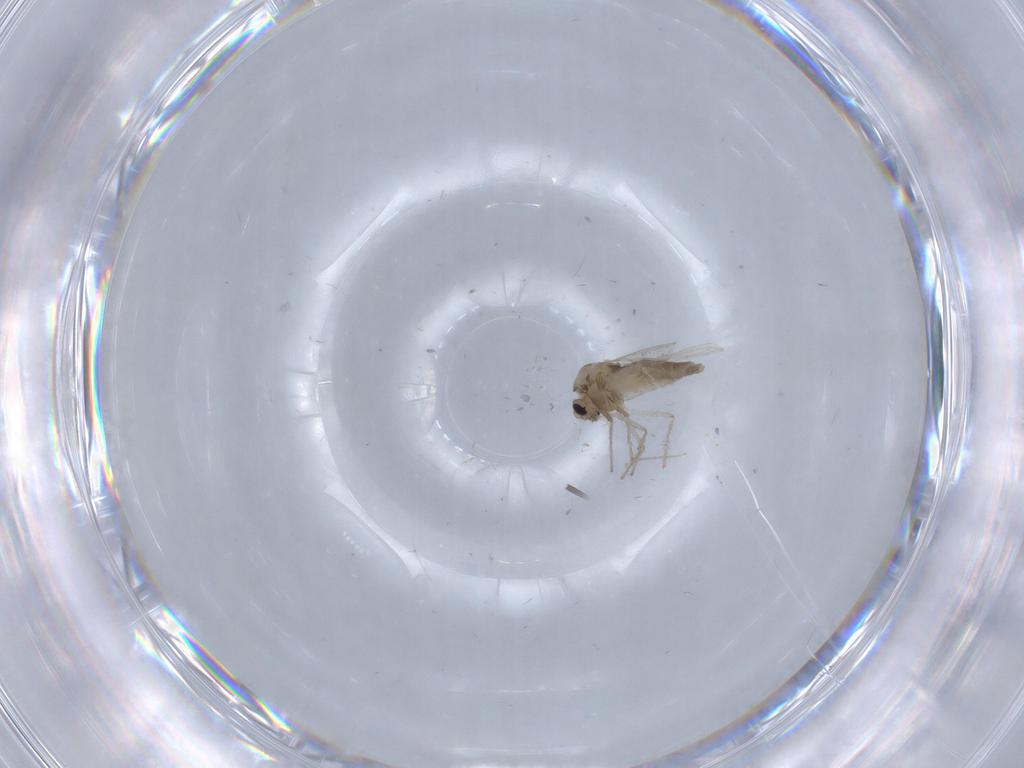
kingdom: Animalia
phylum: Arthropoda
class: Insecta
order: Diptera
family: Chironomidae
